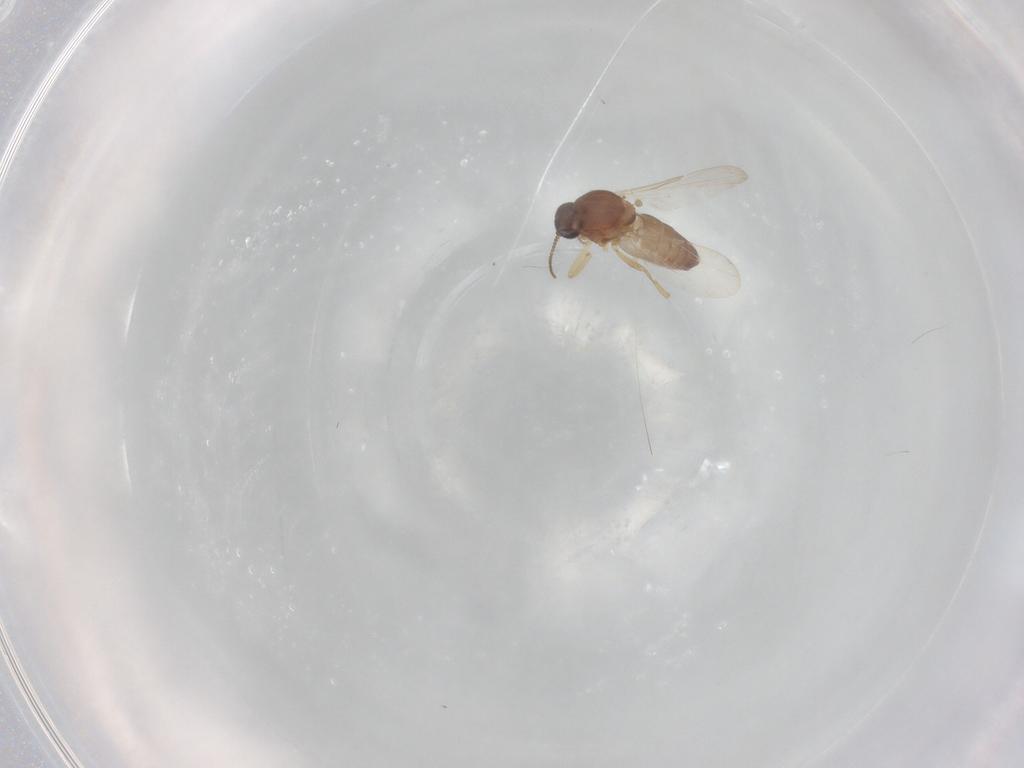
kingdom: Animalia
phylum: Arthropoda
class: Insecta
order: Diptera
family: Ceratopogonidae
